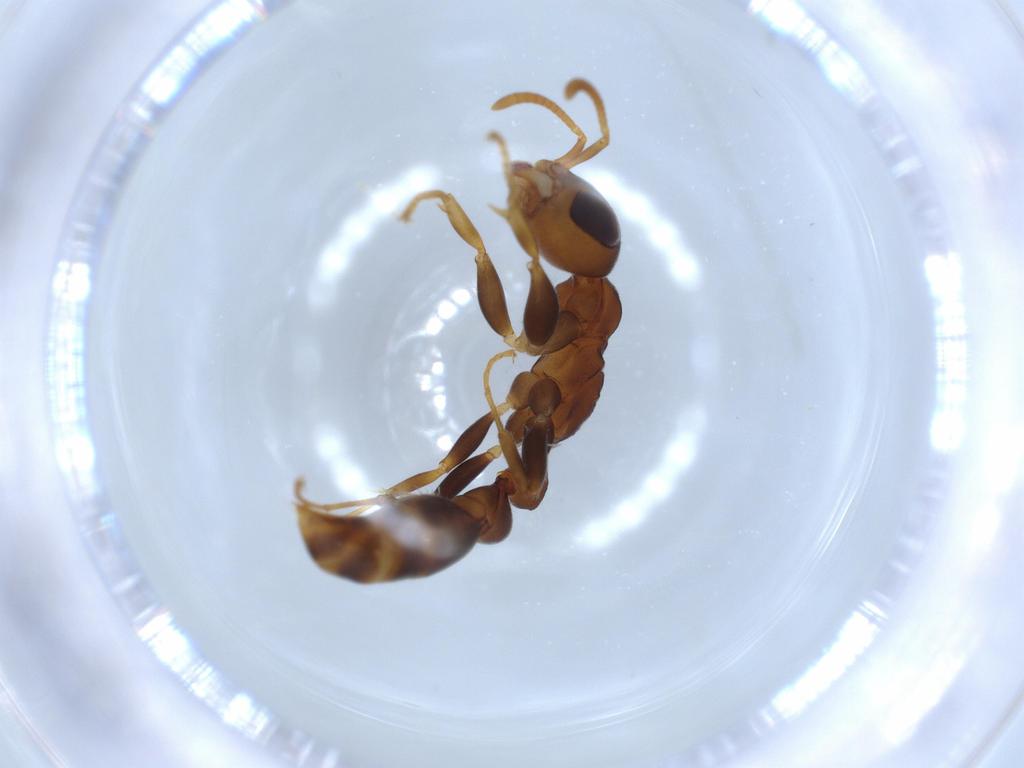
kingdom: Animalia
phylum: Arthropoda
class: Insecta
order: Hymenoptera
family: Formicidae
